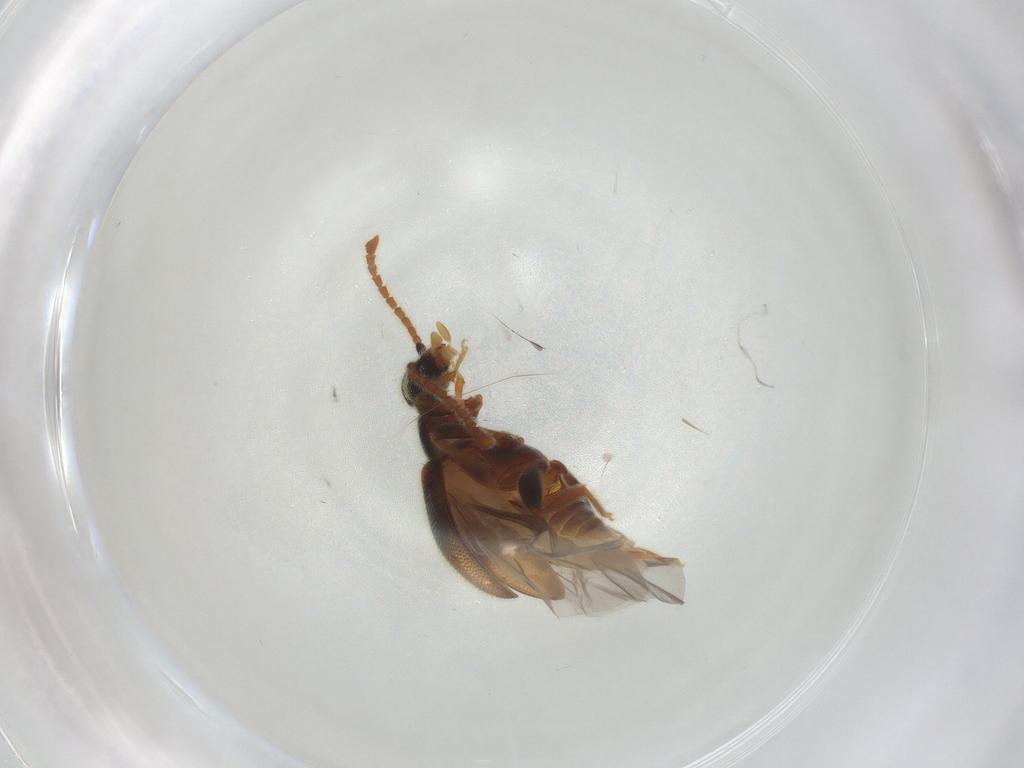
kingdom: Animalia
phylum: Arthropoda
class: Insecta
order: Coleoptera
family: Aderidae
